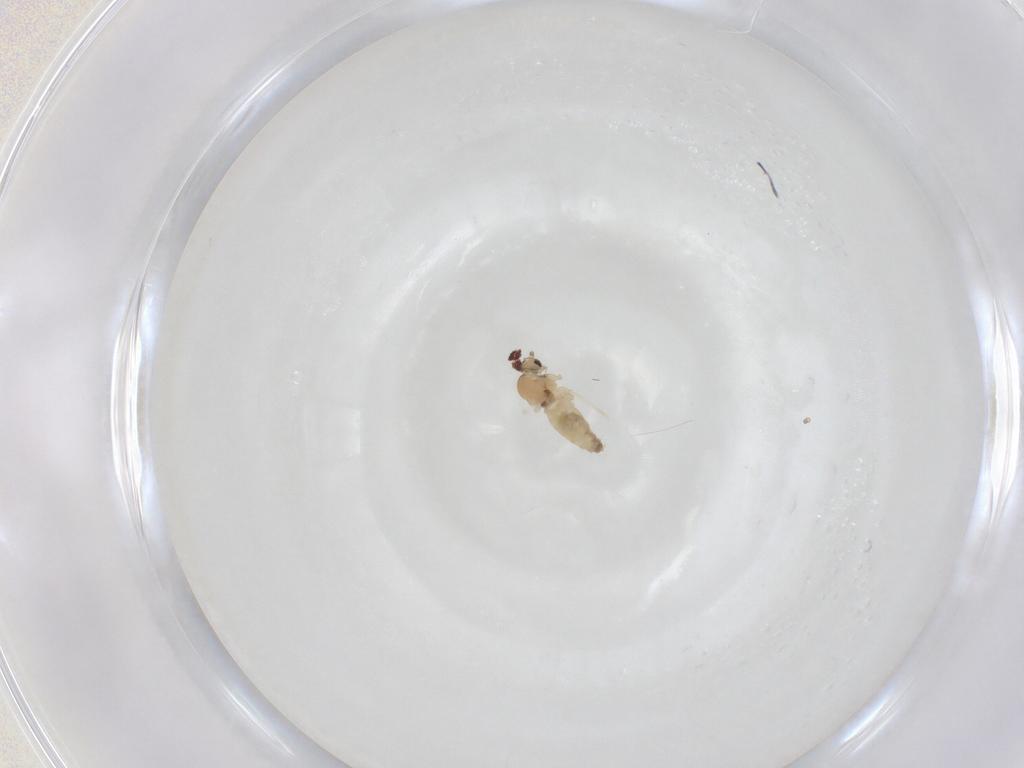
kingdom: Animalia
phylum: Arthropoda
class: Insecta
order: Diptera
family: Cecidomyiidae
